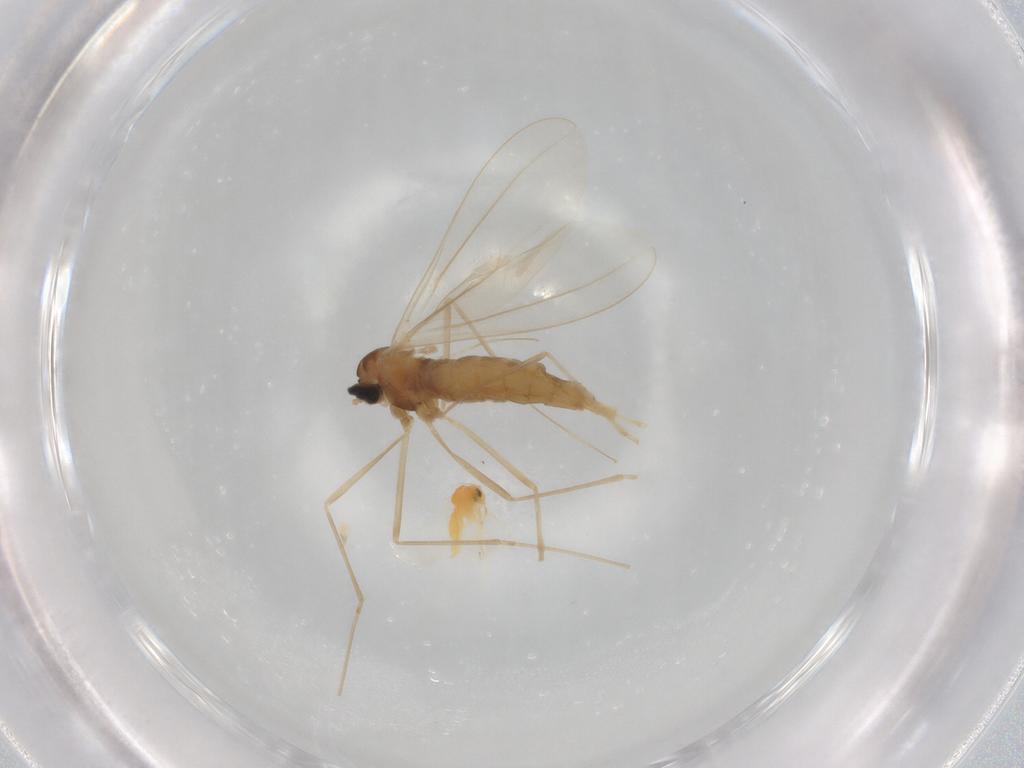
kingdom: Animalia
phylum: Arthropoda
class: Insecta
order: Diptera
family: Cecidomyiidae
